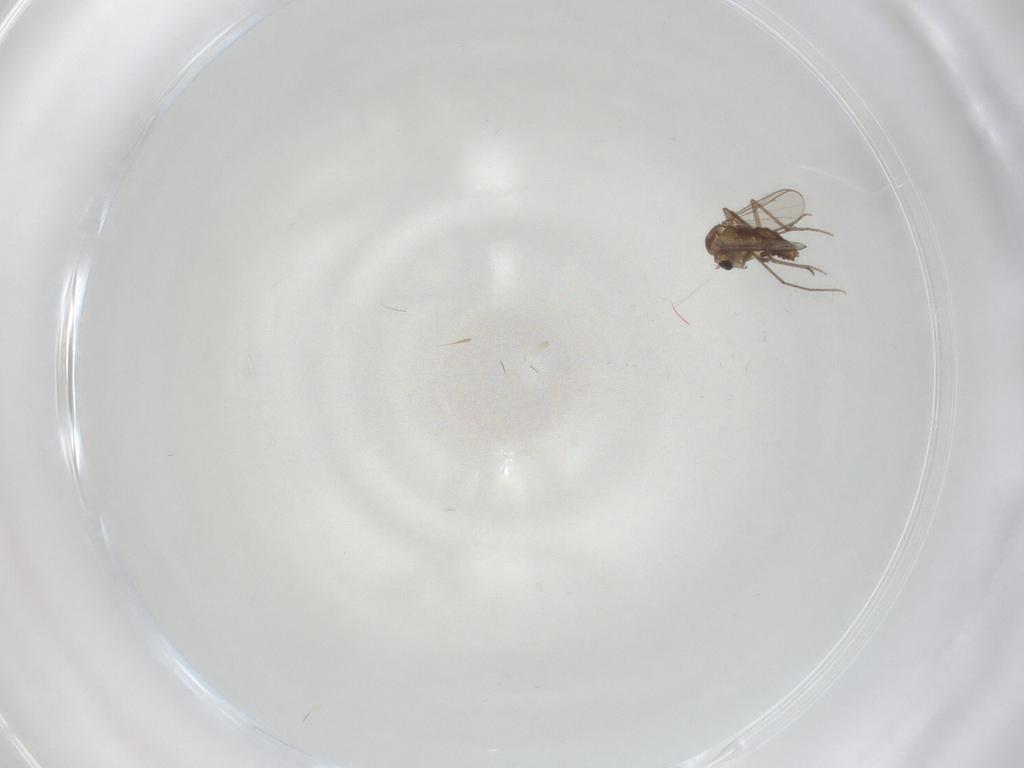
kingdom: Animalia
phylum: Arthropoda
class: Insecta
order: Diptera
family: Chironomidae
